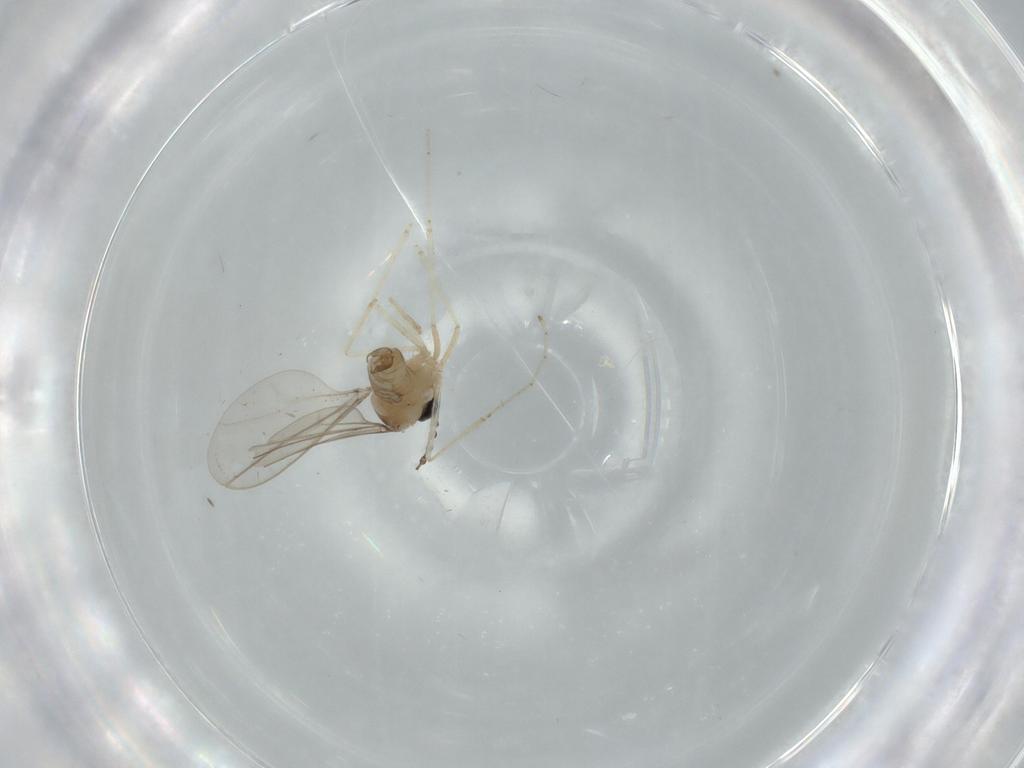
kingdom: Animalia
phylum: Arthropoda
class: Insecta
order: Diptera
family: Cecidomyiidae
